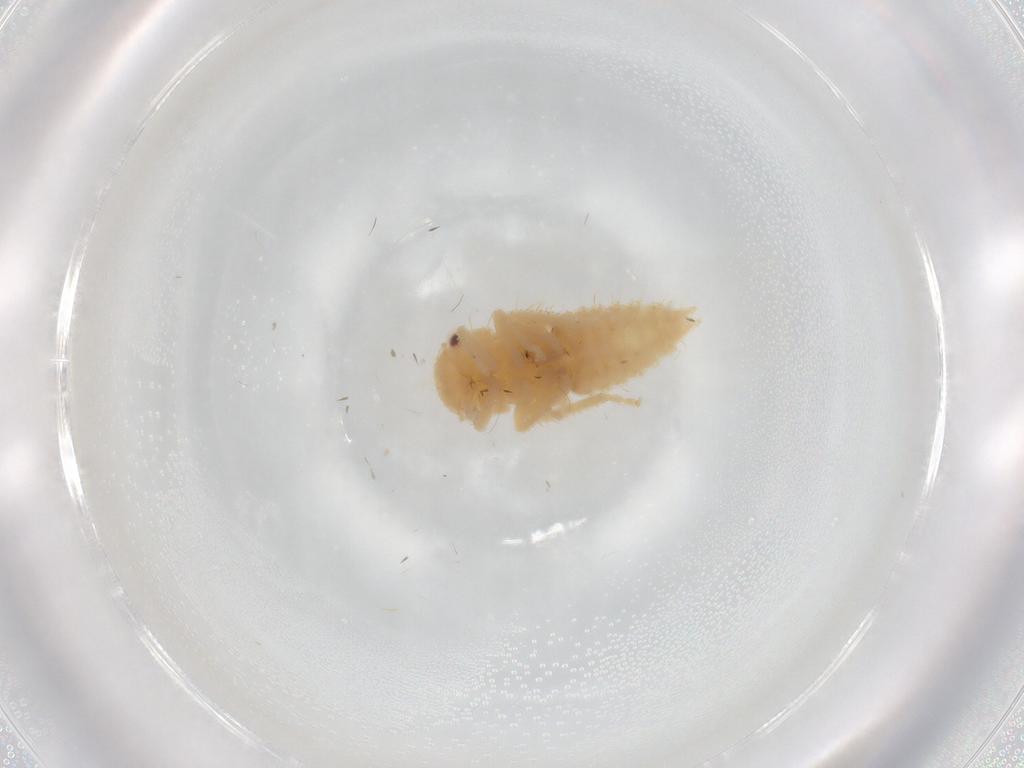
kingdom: Animalia
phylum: Arthropoda
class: Insecta
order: Hemiptera
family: Cicadellidae
